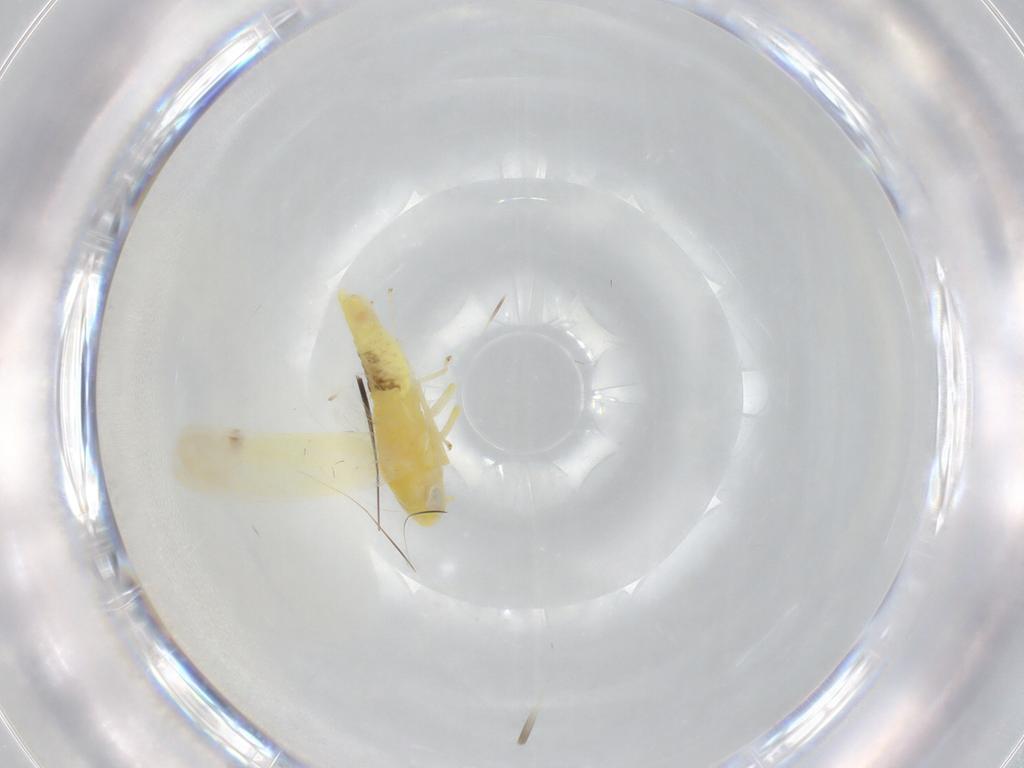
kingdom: Animalia
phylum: Arthropoda
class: Insecta
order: Hemiptera
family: Cicadellidae
